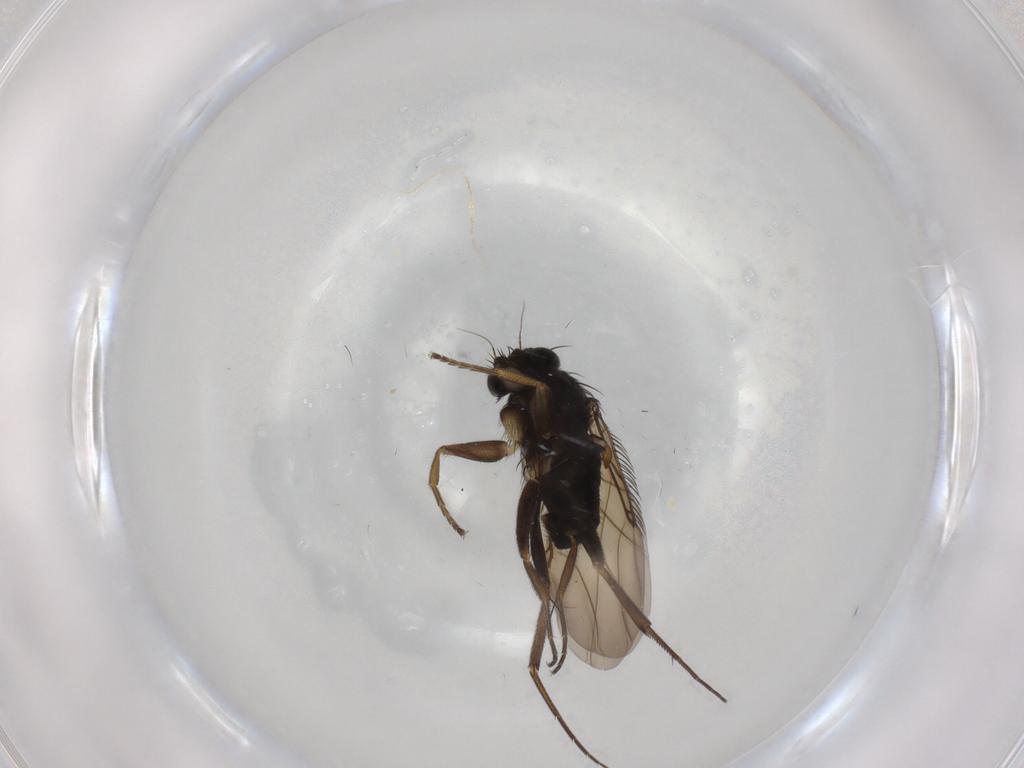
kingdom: Animalia
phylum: Arthropoda
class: Insecta
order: Diptera
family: Phoridae
